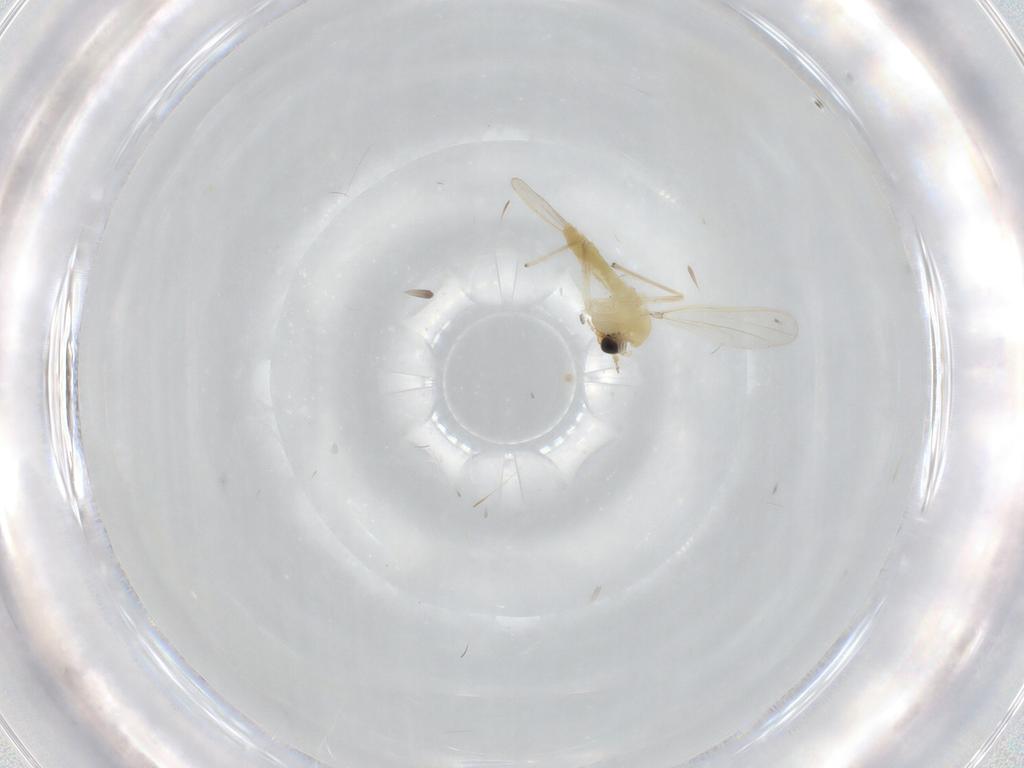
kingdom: Animalia
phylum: Arthropoda
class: Insecta
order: Diptera
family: Chironomidae
